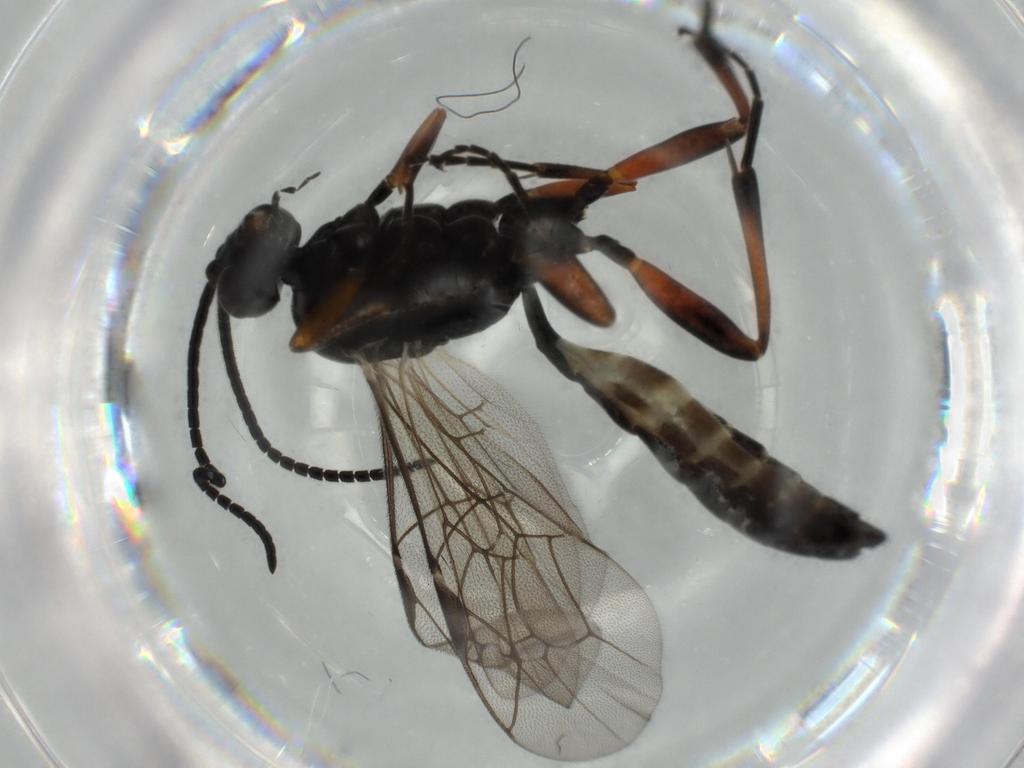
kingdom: Animalia
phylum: Arthropoda
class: Insecta
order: Hymenoptera
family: Ichneumonidae
